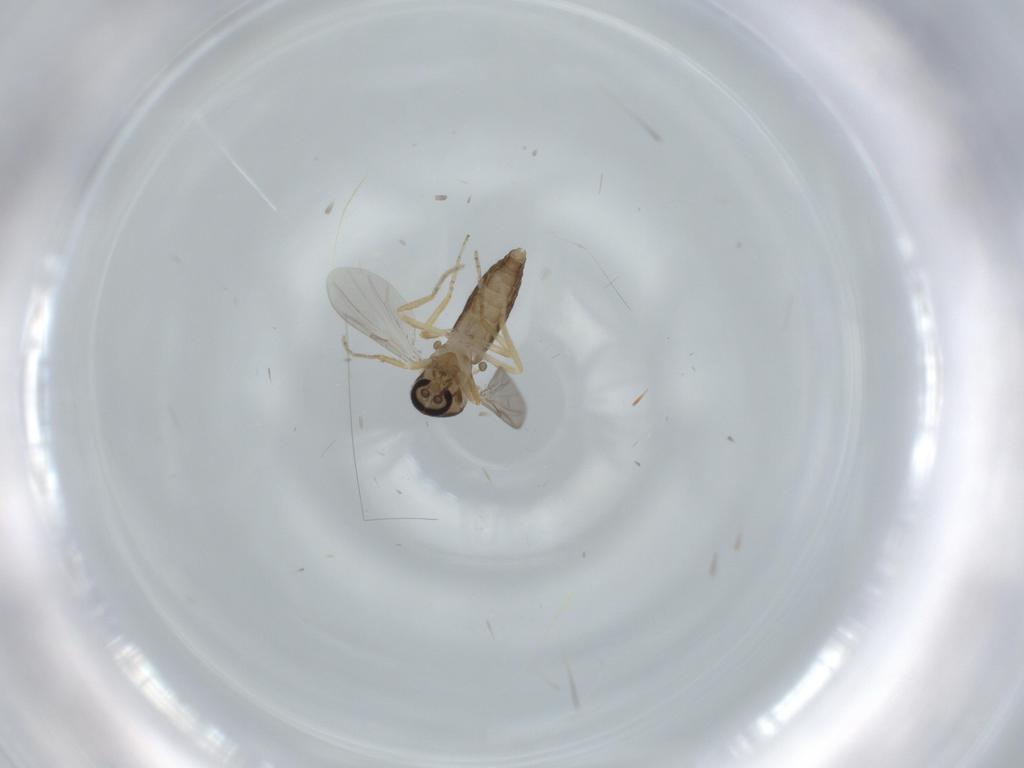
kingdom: Animalia
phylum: Arthropoda
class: Insecta
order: Diptera
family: Ceratopogonidae
